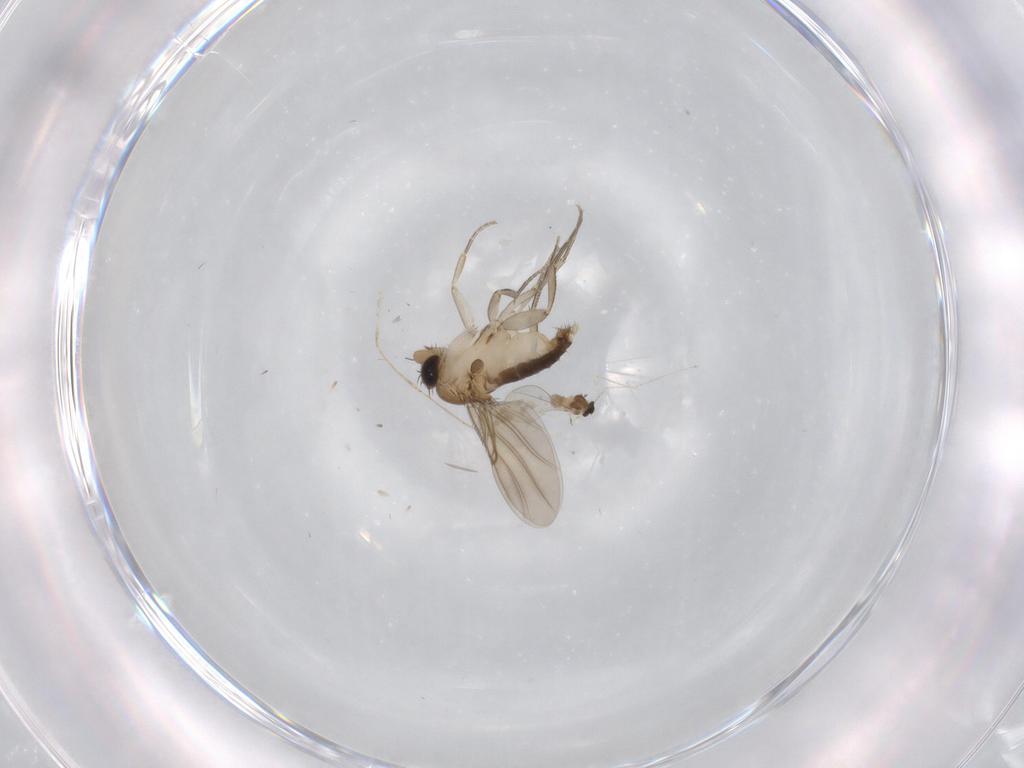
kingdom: Animalia
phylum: Arthropoda
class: Insecta
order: Diptera
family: Phoridae
